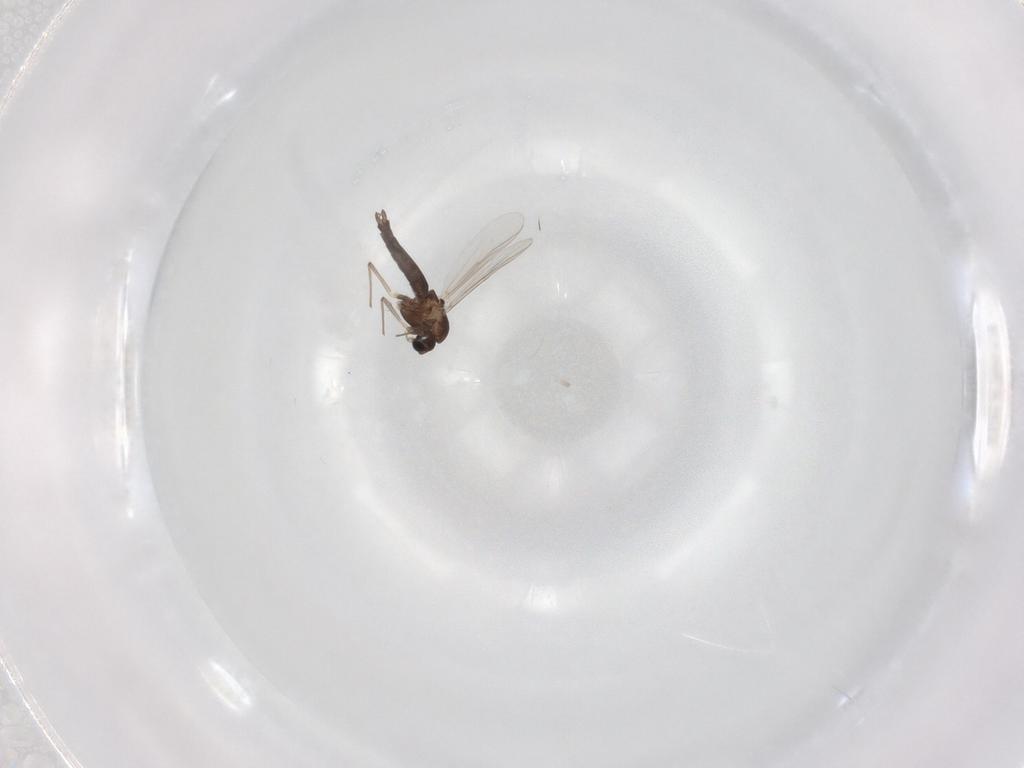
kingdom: Animalia
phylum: Arthropoda
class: Insecta
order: Diptera
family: Chironomidae
